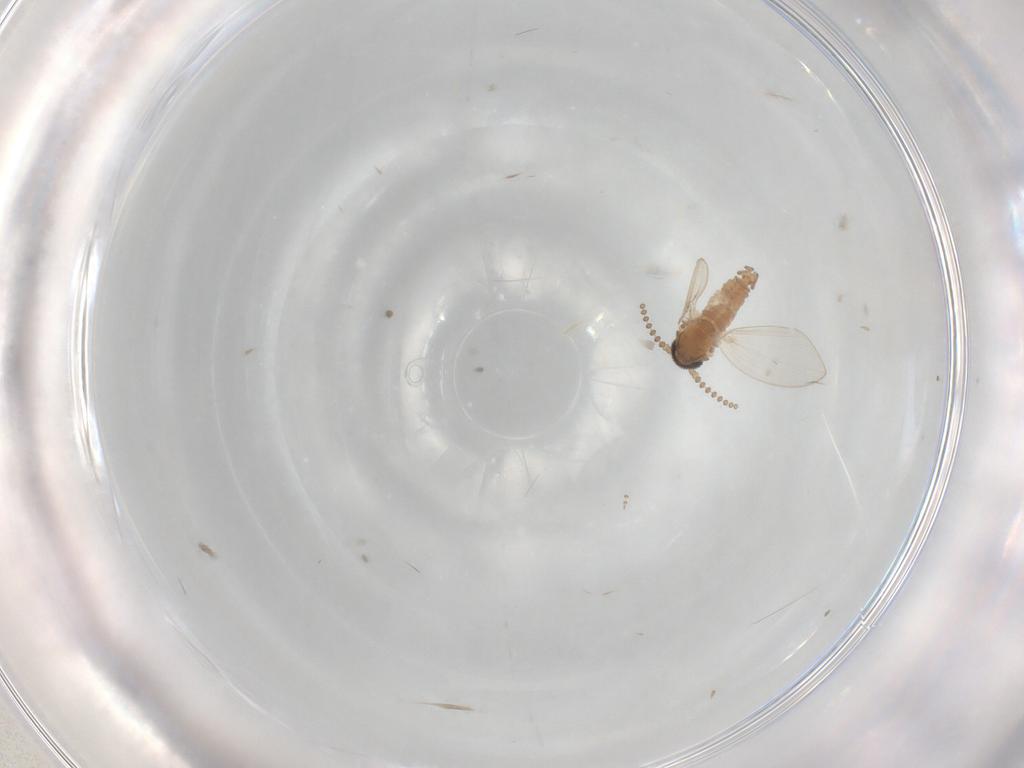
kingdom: Animalia
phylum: Arthropoda
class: Insecta
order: Diptera
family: Psychodidae
